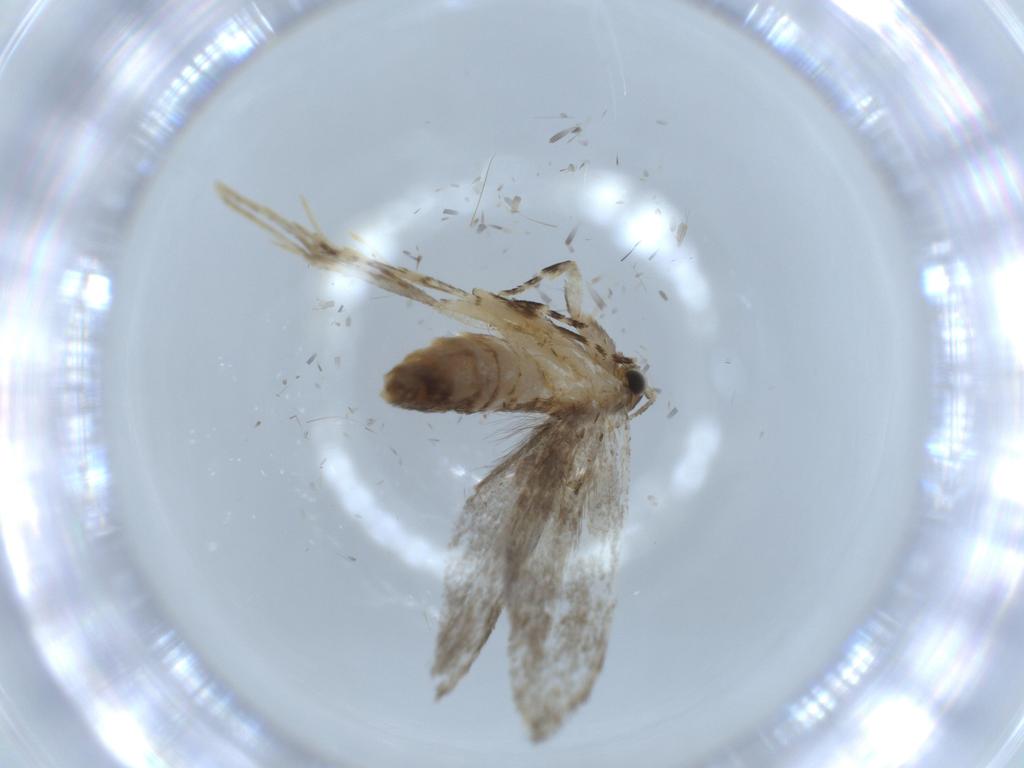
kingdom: Animalia
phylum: Arthropoda
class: Insecta
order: Lepidoptera
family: Tineidae
